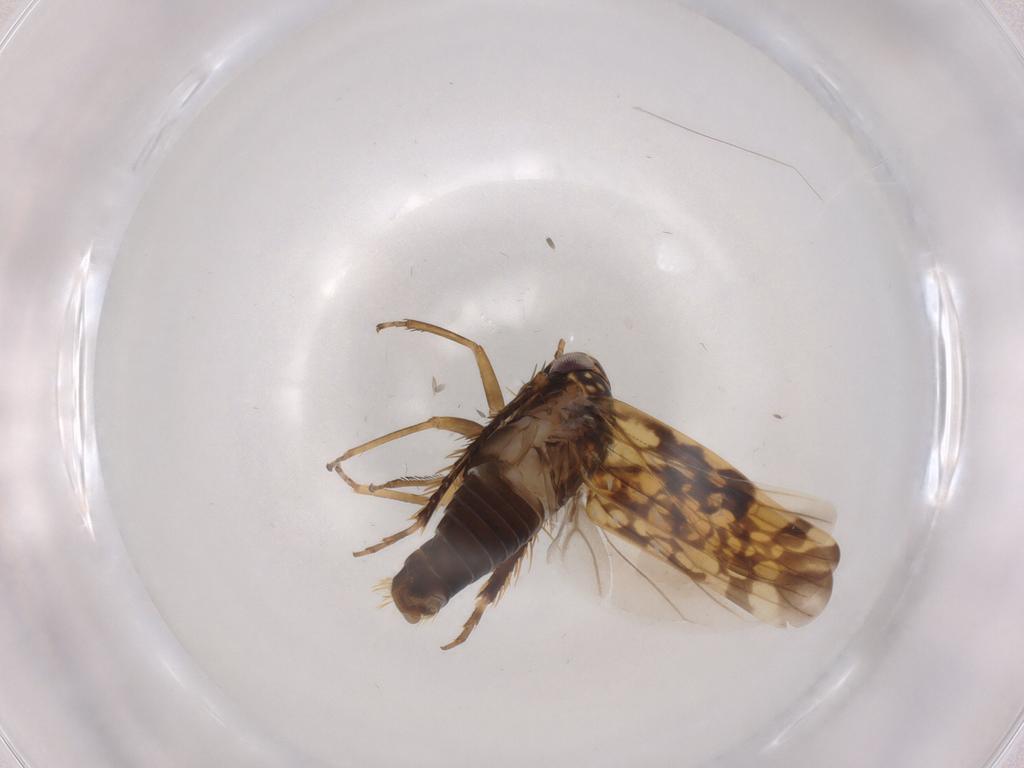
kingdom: Animalia
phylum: Arthropoda
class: Insecta
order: Hemiptera
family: Cicadellidae
